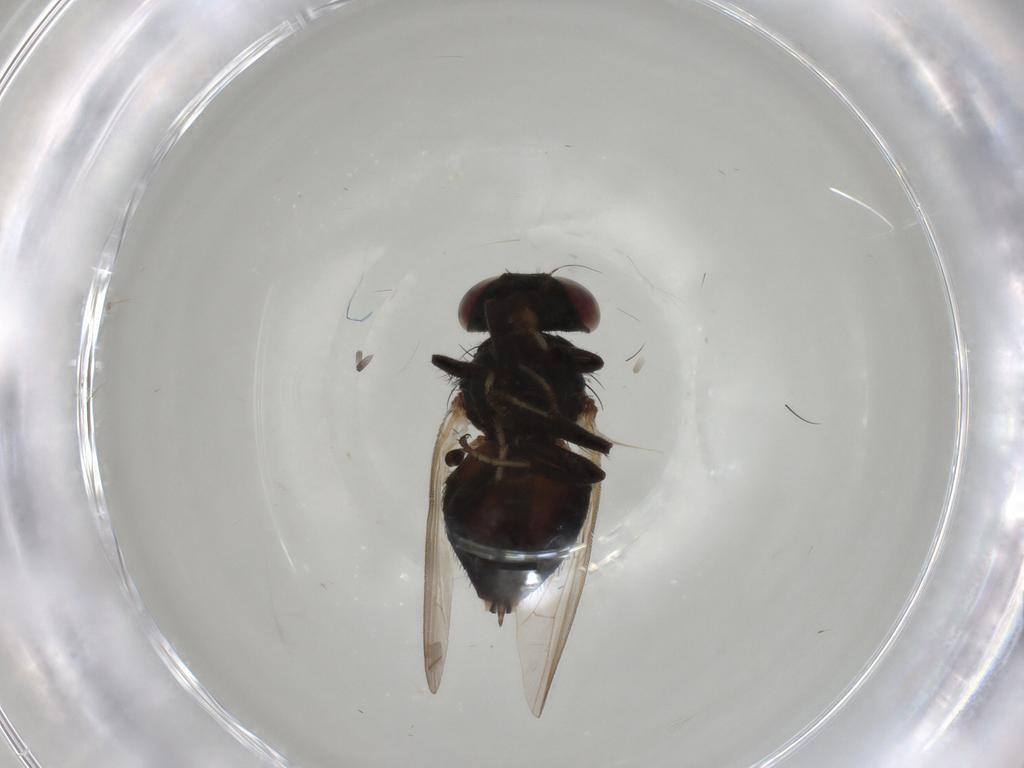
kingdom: Animalia
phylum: Arthropoda
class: Insecta
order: Diptera
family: Lonchaeidae
